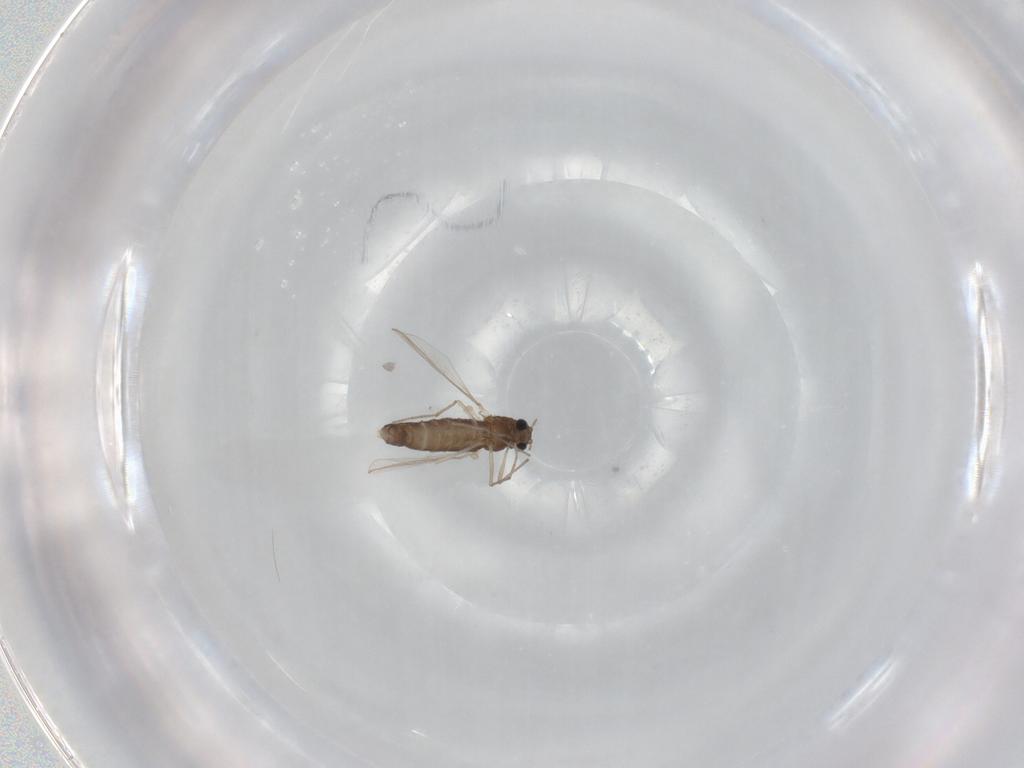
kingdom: Animalia
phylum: Arthropoda
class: Insecta
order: Diptera
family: Chironomidae
